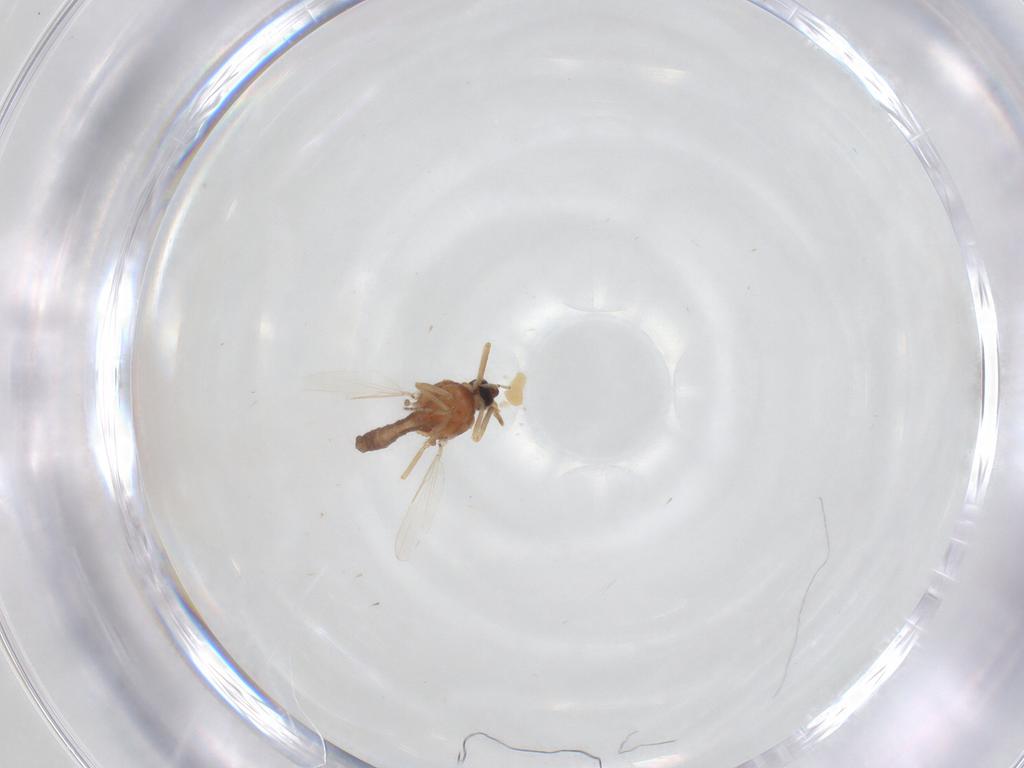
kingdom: Animalia
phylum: Arthropoda
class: Insecta
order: Diptera
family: Ceratopogonidae
